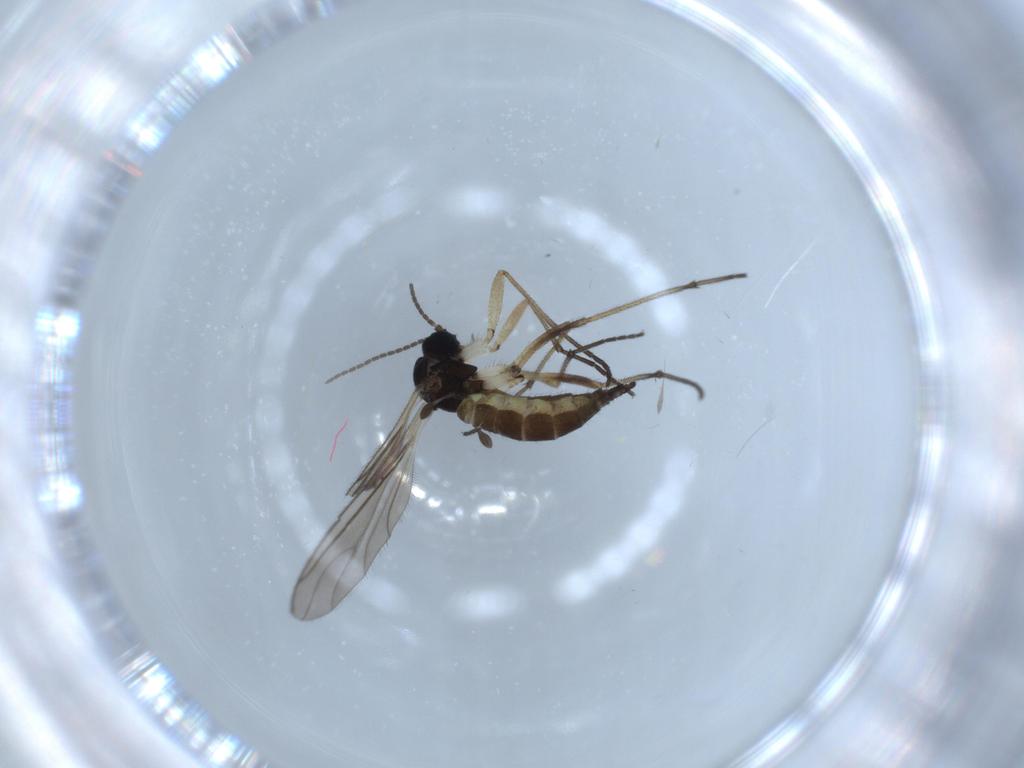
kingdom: Animalia
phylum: Arthropoda
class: Insecta
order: Diptera
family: Sciaridae
